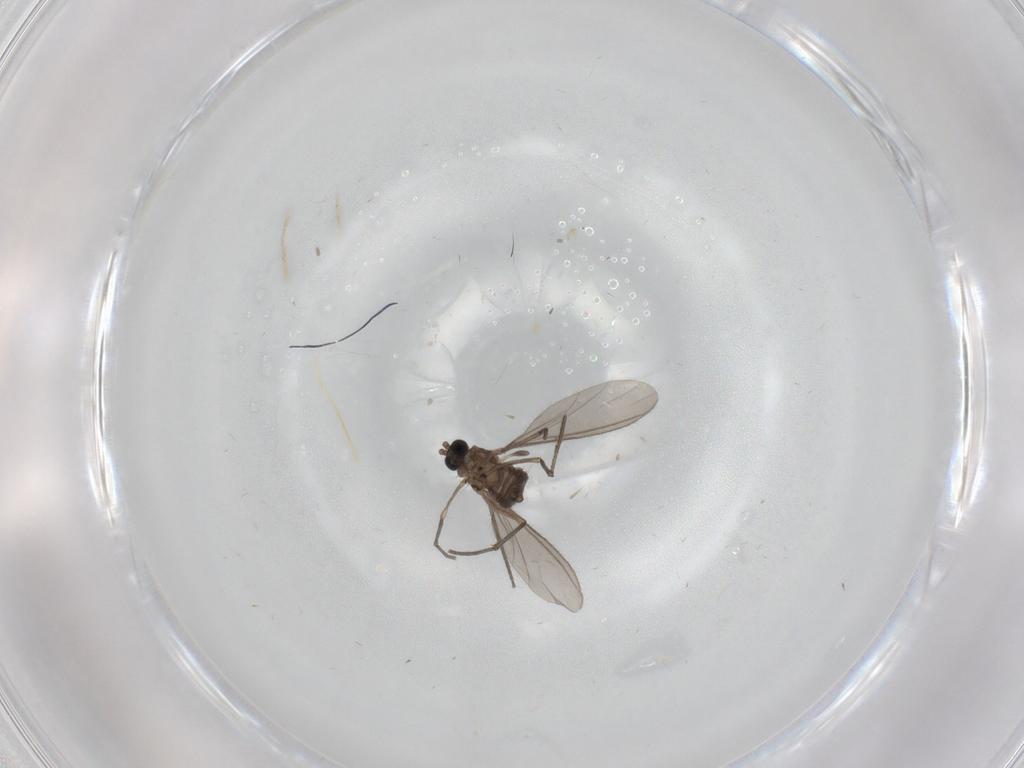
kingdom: Animalia
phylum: Arthropoda
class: Insecta
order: Diptera
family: Sciaridae
